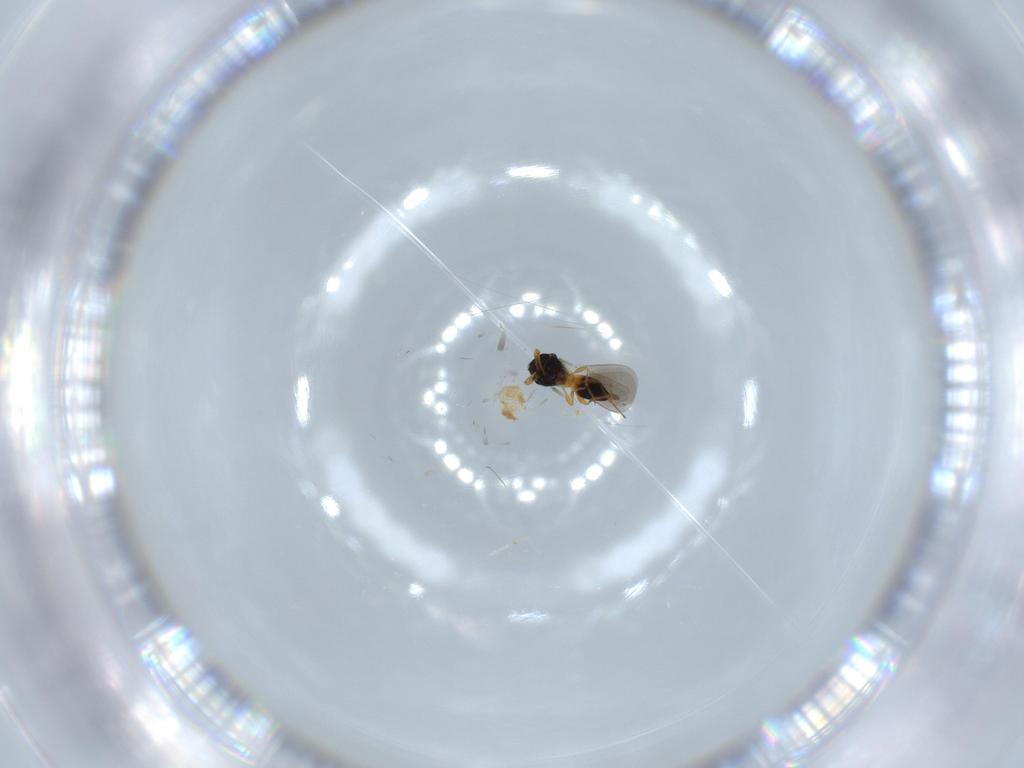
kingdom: Animalia
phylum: Arthropoda
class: Insecta
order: Hymenoptera
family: Platygastridae
